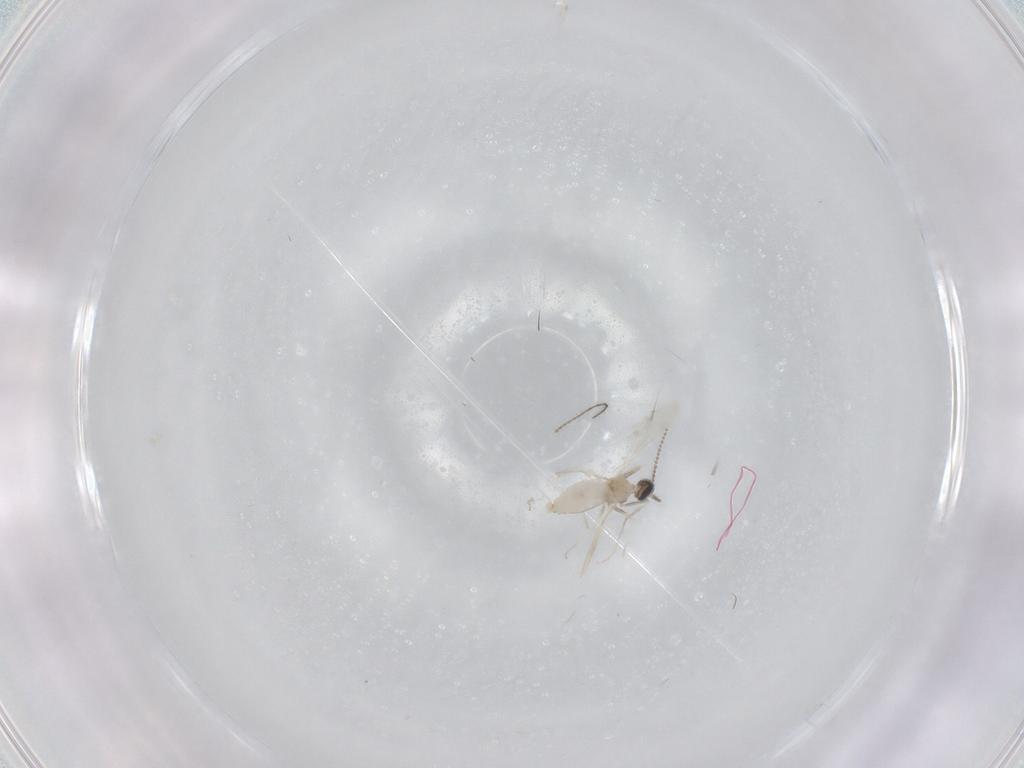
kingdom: Animalia
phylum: Arthropoda
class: Insecta
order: Diptera
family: Cecidomyiidae
